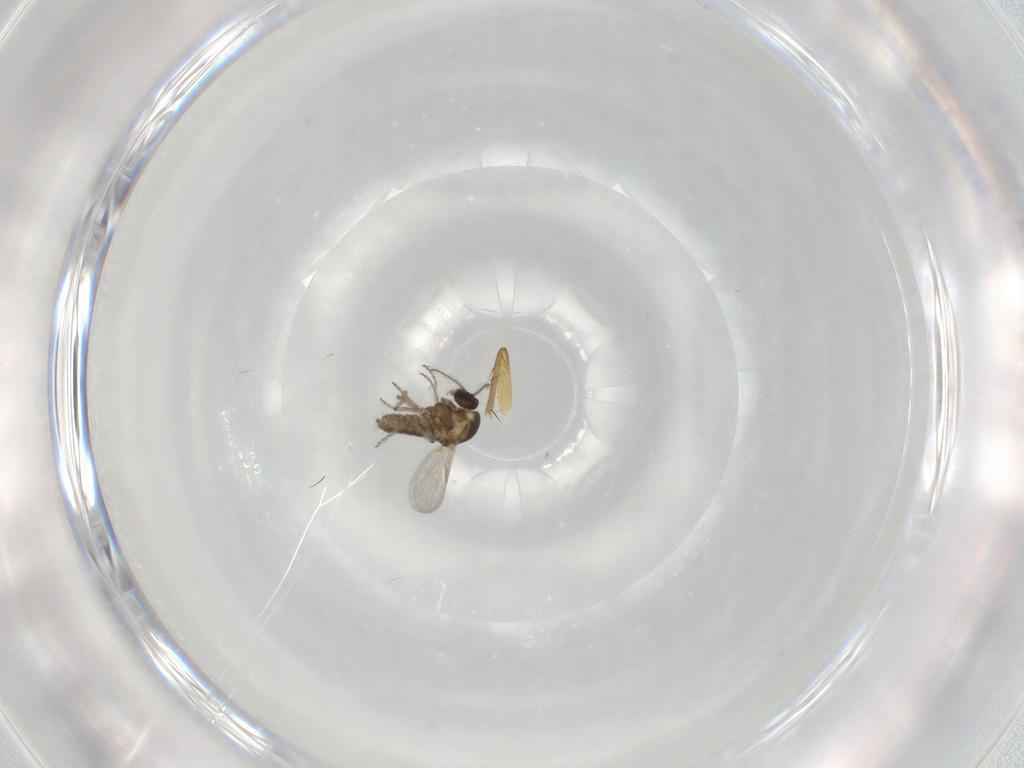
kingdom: Animalia
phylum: Arthropoda
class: Insecta
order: Diptera
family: Ceratopogonidae
